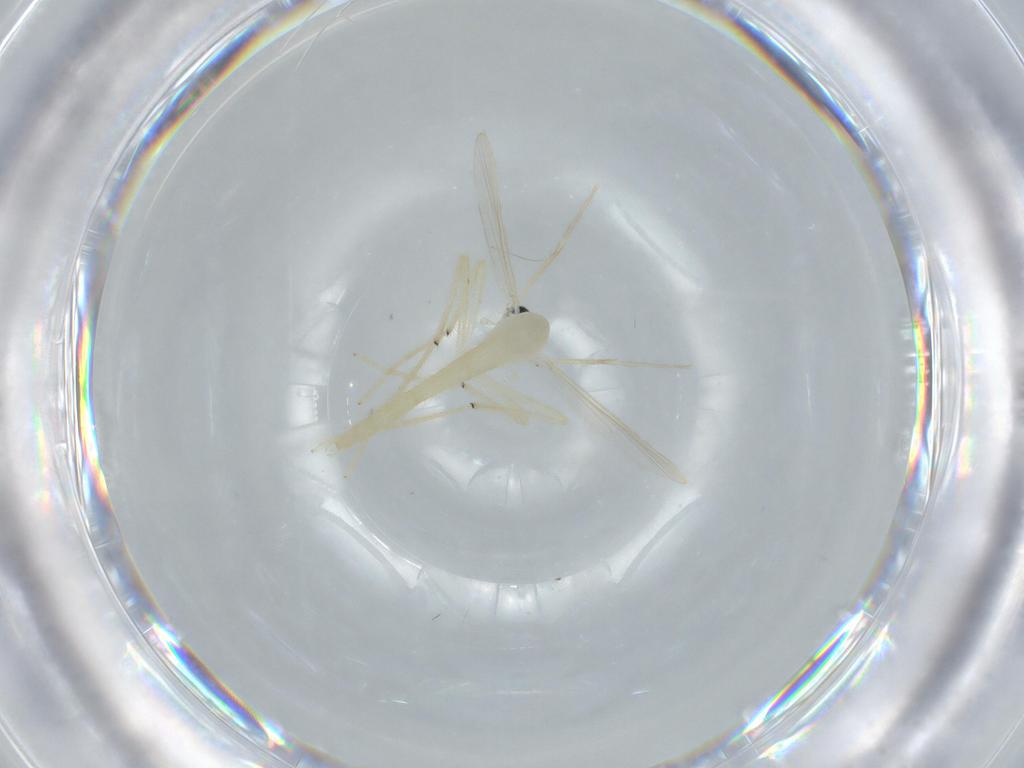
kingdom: Animalia
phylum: Arthropoda
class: Insecta
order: Diptera
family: Chironomidae
